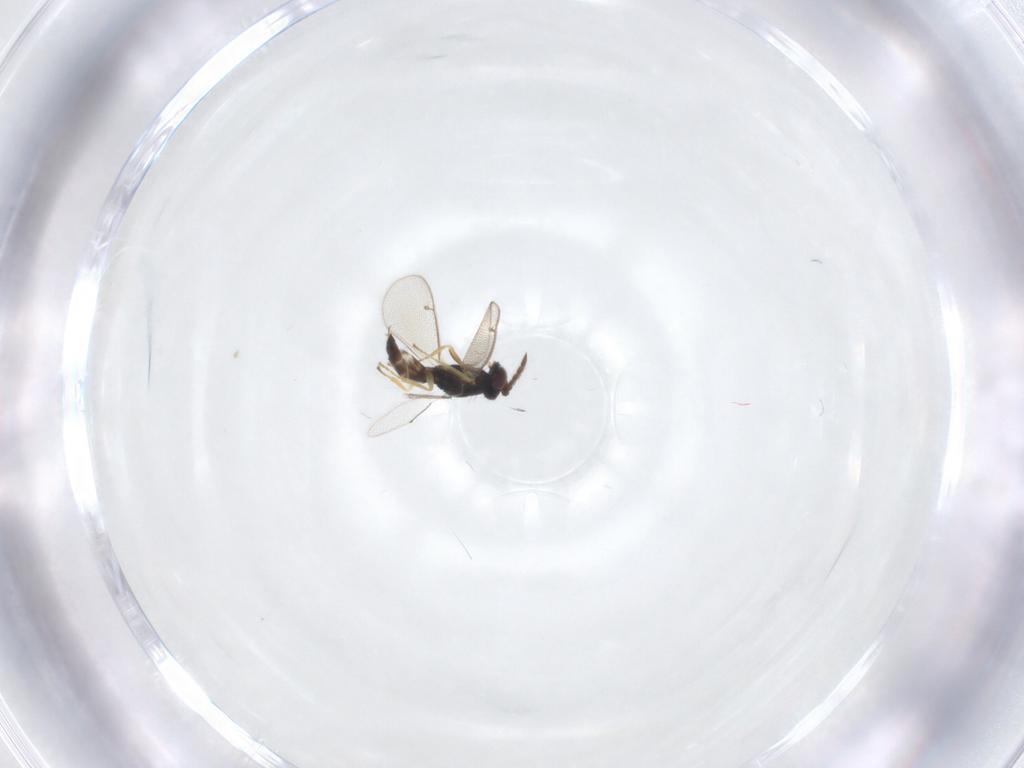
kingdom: Animalia
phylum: Arthropoda
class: Insecta
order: Hymenoptera
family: Eulophidae
